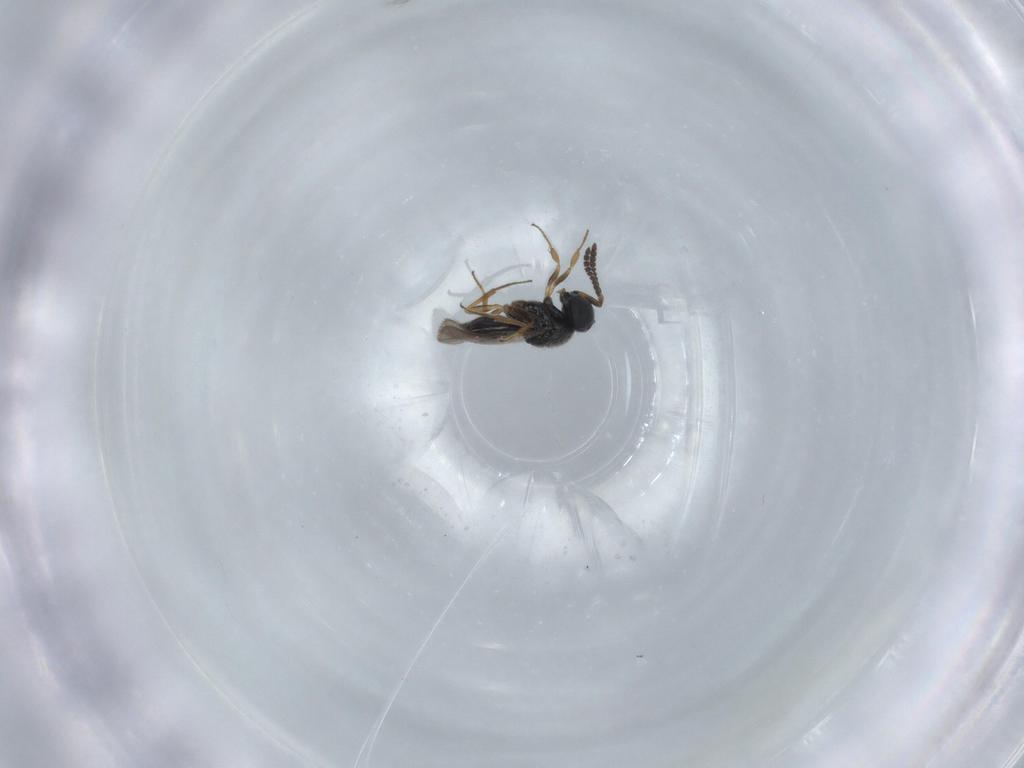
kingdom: Animalia
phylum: Arthropoda
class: Insecta
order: Hymenoptera
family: Scelionidae
